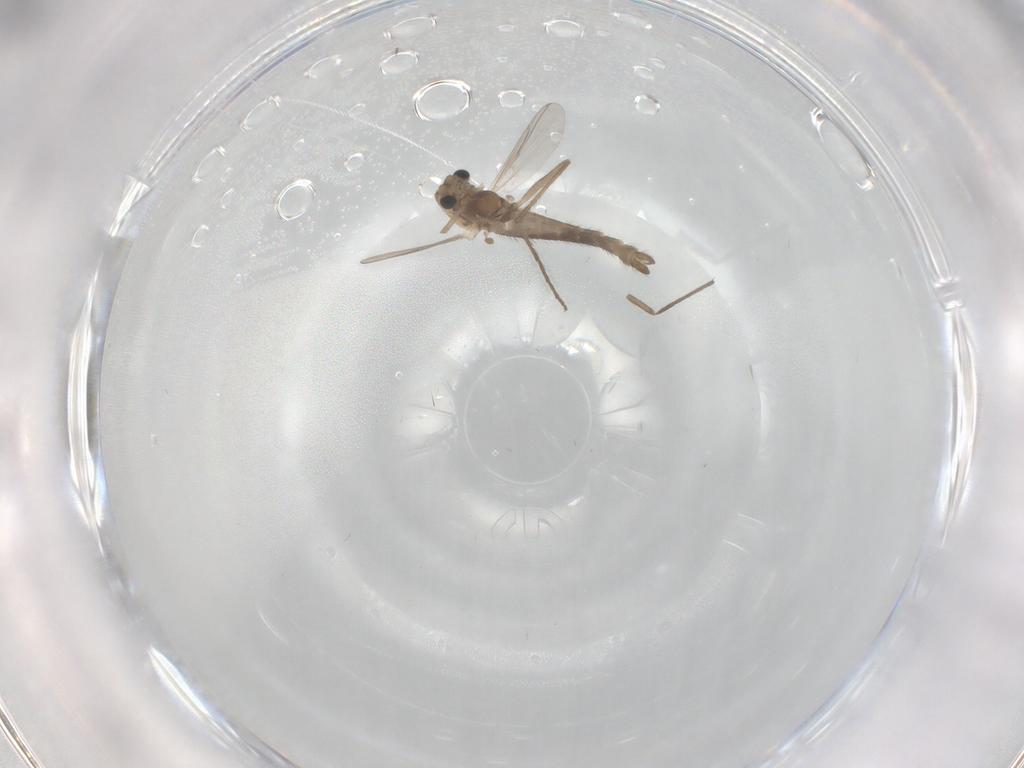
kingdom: Animalia
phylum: Arthropoda
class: Insecta
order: Diptera
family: Chironomidae
